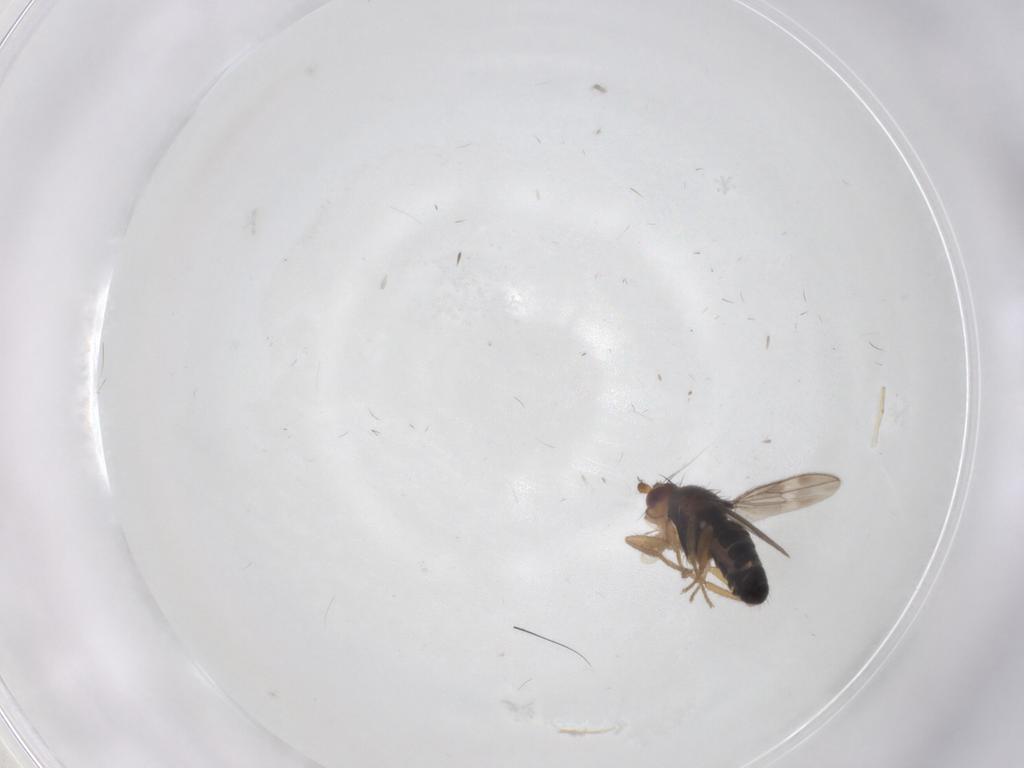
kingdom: Animalia
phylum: Arthropoda
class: Insecta
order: Diptera
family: Sphaeroceridae
